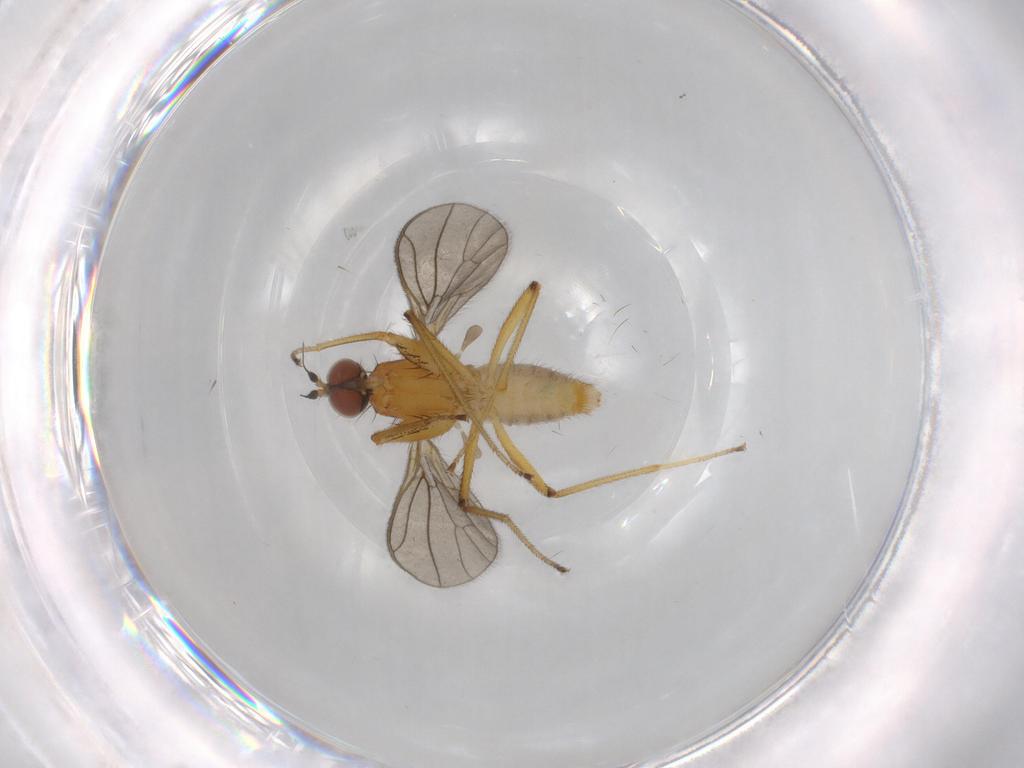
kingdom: Animalia
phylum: Arthropoda
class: Insecta
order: Diptera
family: Empididae
